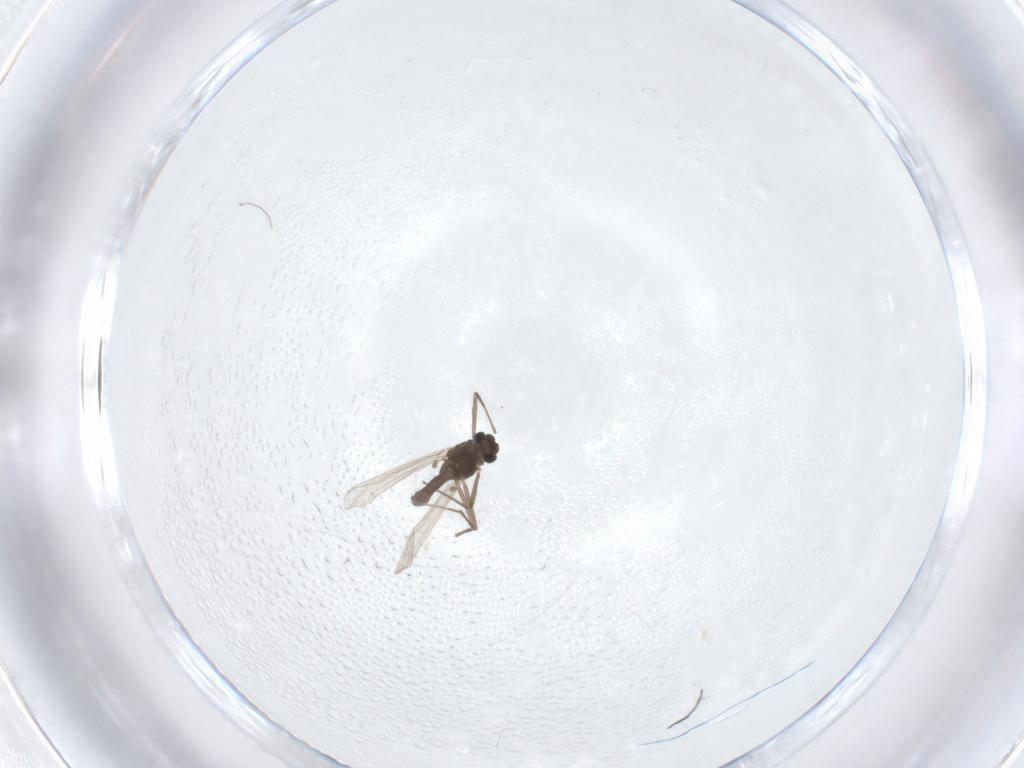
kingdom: Animalia
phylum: Arthropoda
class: Insecta
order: Diptera
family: Chironomidae
